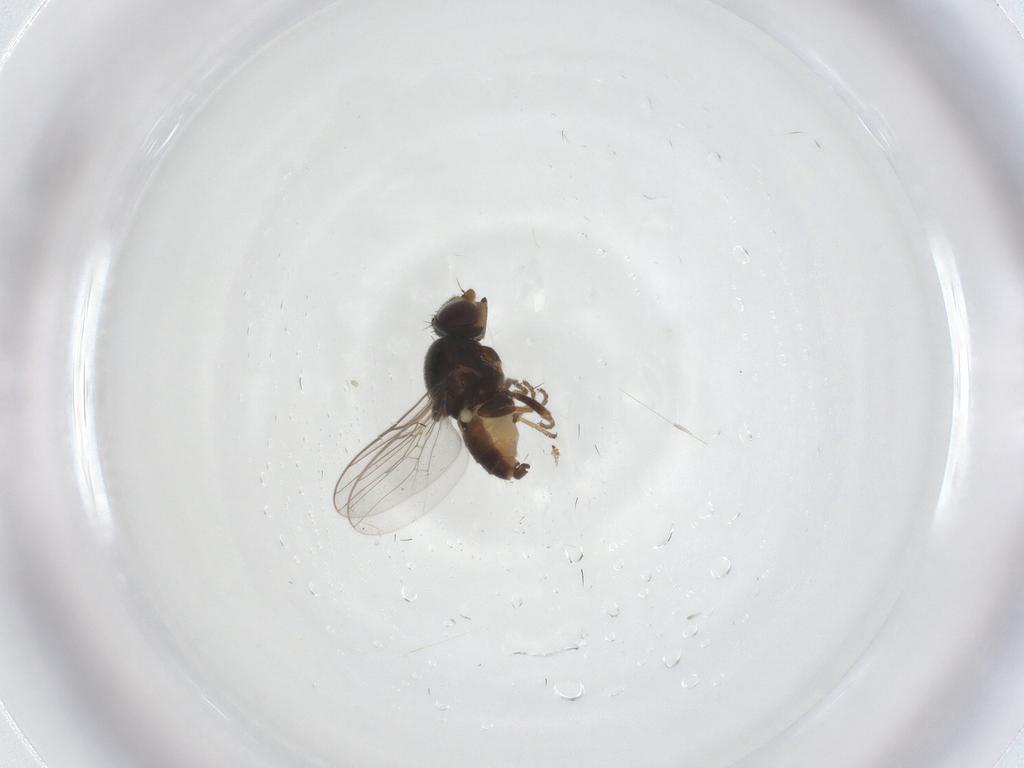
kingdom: Animalia
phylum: Arthropoda
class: Insecta
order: Diptera
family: Chloropidae
